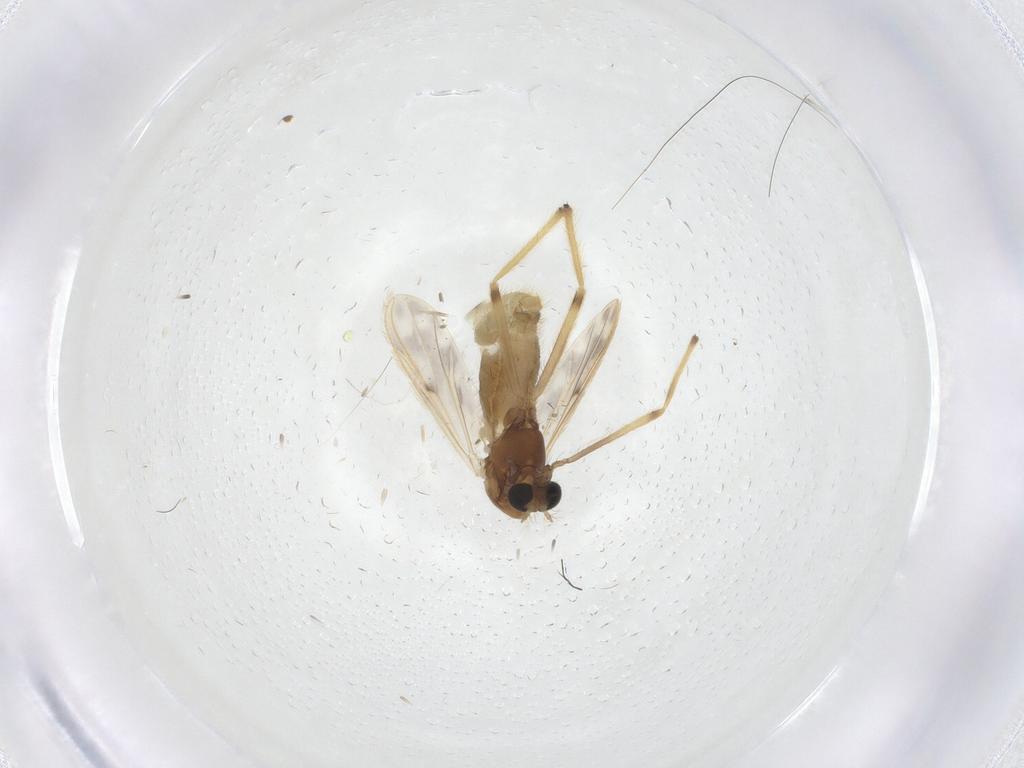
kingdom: Animalia
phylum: Arthropoda
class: Insecta
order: Diptera
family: Chironomidae
